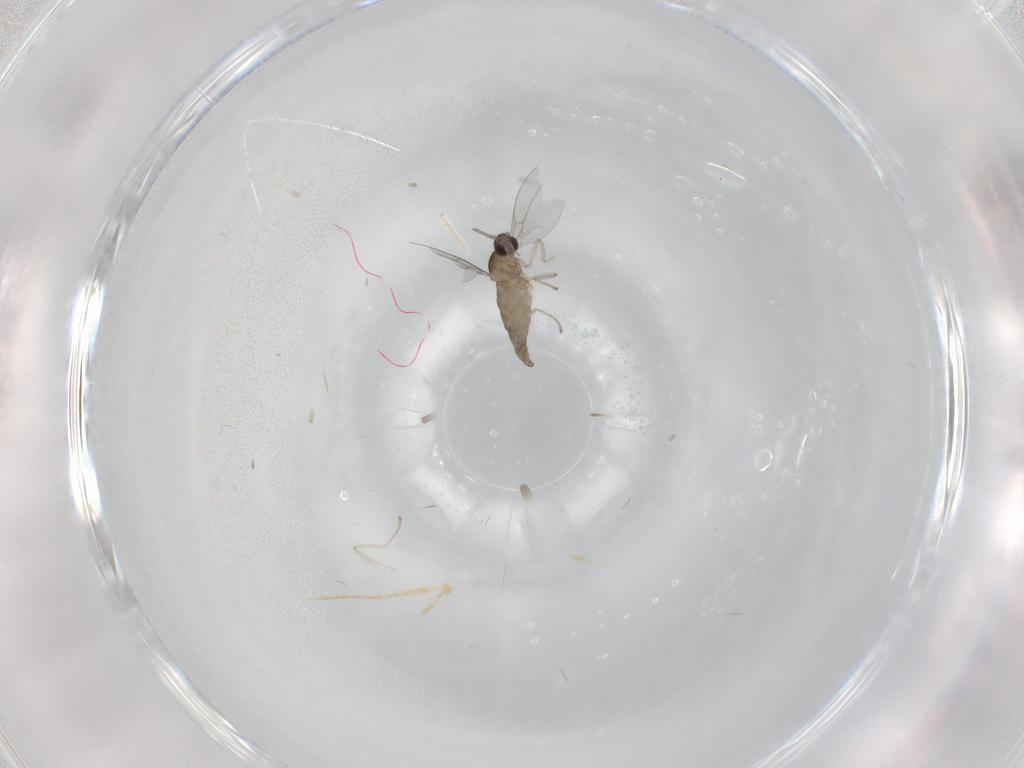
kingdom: Animalia
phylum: Arthropoda
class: Insecta
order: Diptera
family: Cecidomyiidae
